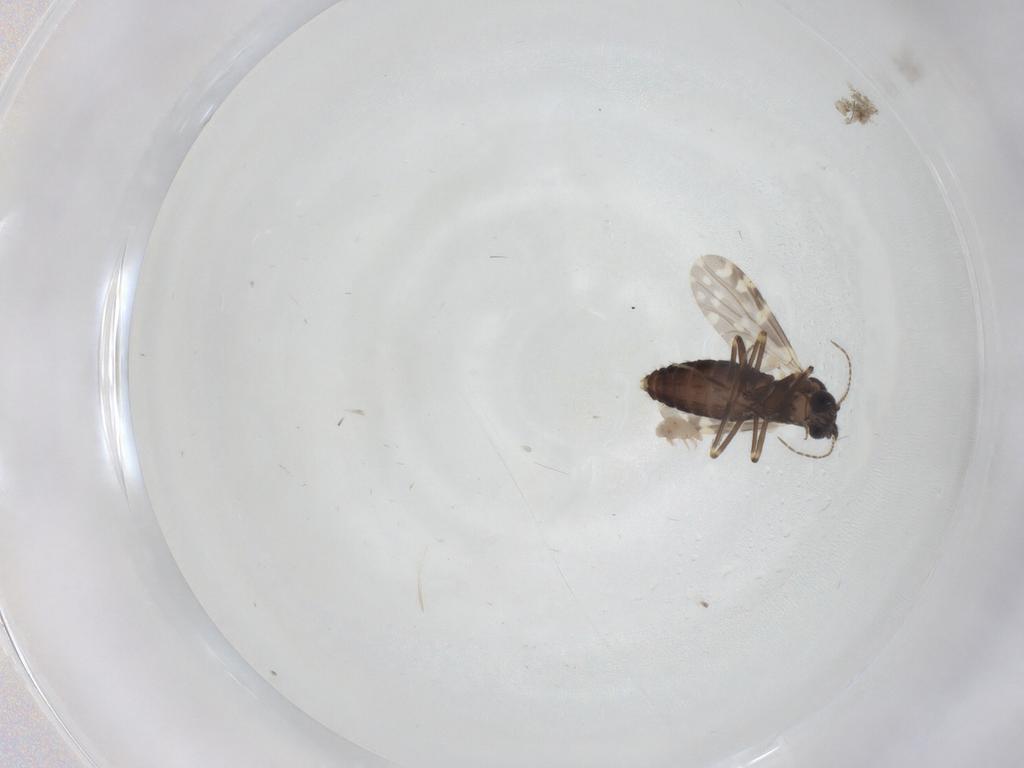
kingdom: Animalia
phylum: Arthropoda
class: Insecta
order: Diptera
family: Ceratopogonidae
